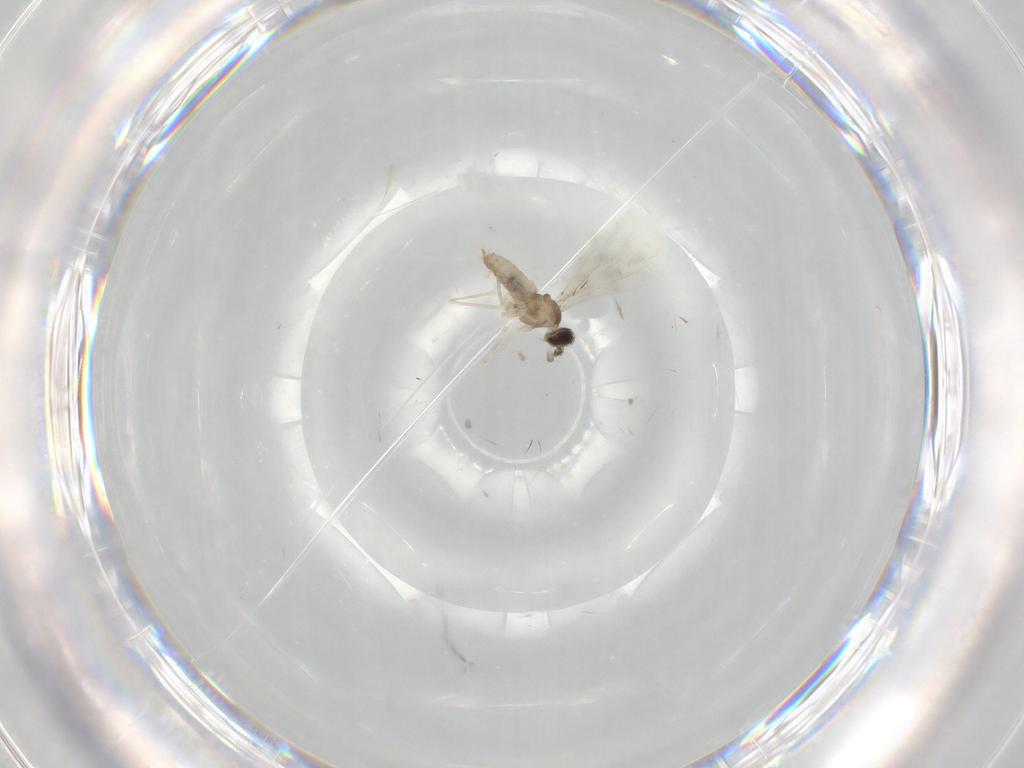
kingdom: Animalia
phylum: Arthropoda
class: Insecta
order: Diptera
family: Cecidomyiidae
